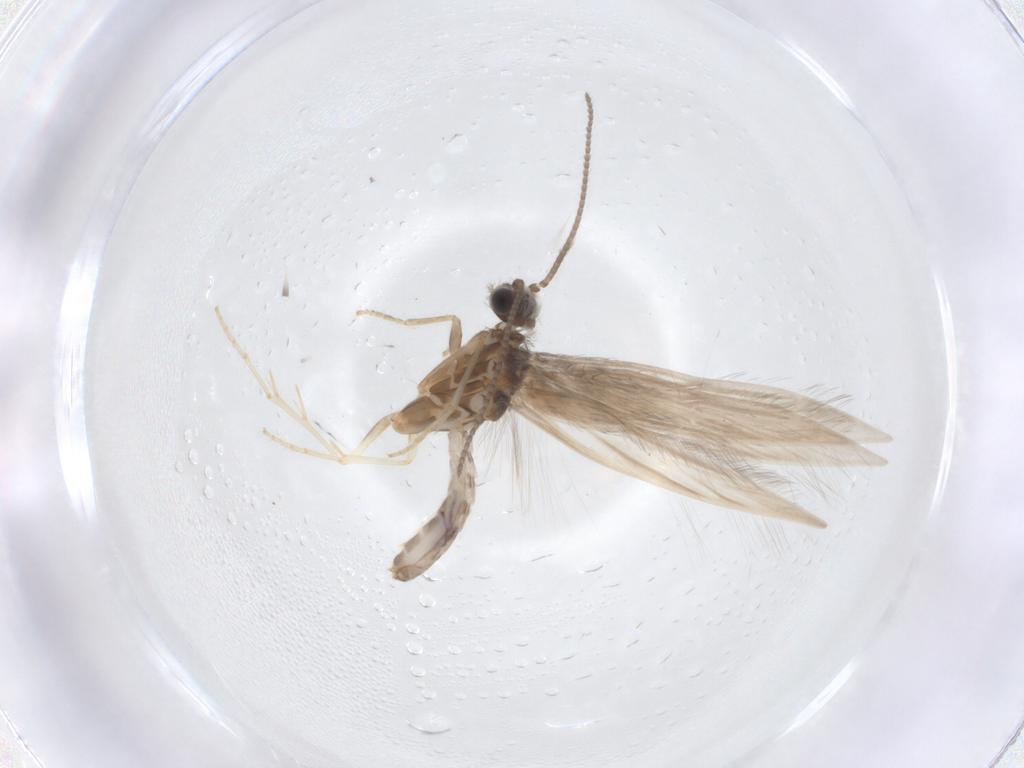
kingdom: Animalia
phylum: Arthropoda
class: Insecta
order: Trichoptera
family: Hydroptilidae
